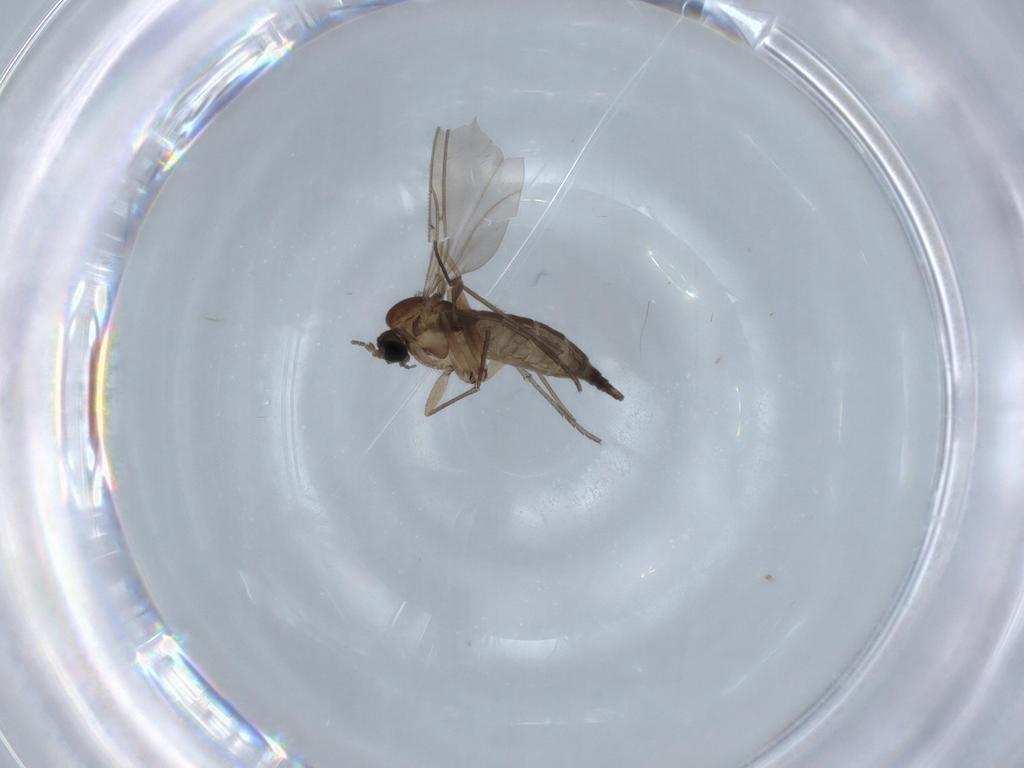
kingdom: Animalia
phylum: Arthropoda
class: Insecta
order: Diptera
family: Sciaridae
